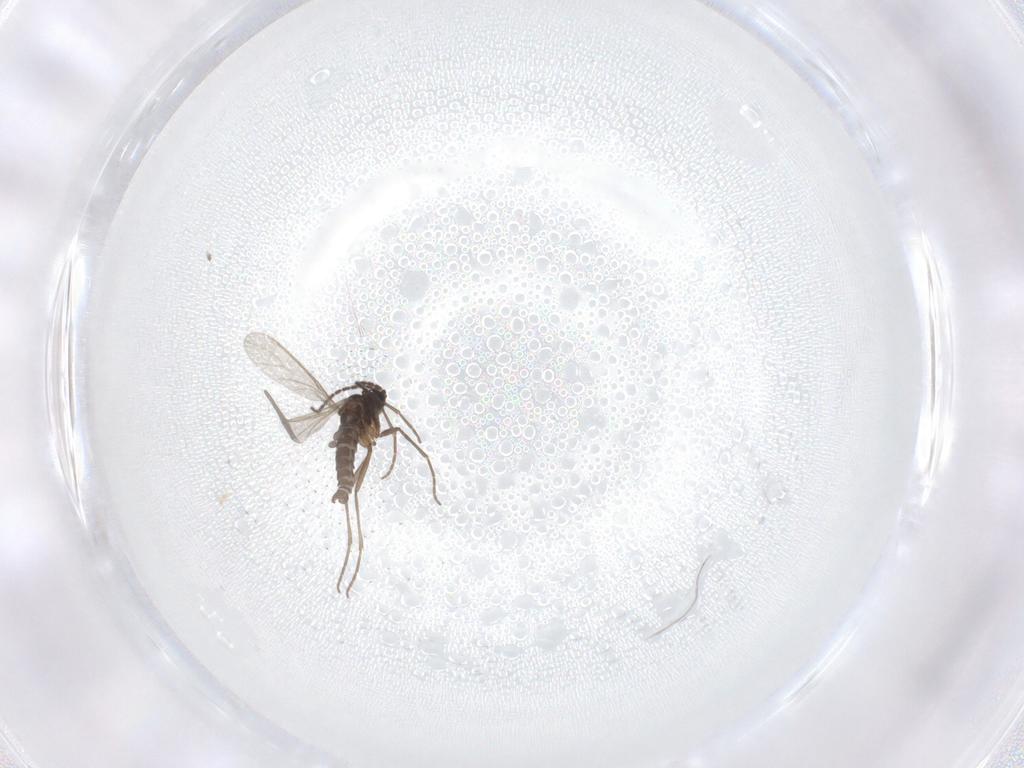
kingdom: Animalia
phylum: Arthropoda
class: Insecta
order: Diptera
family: Sciaridae
